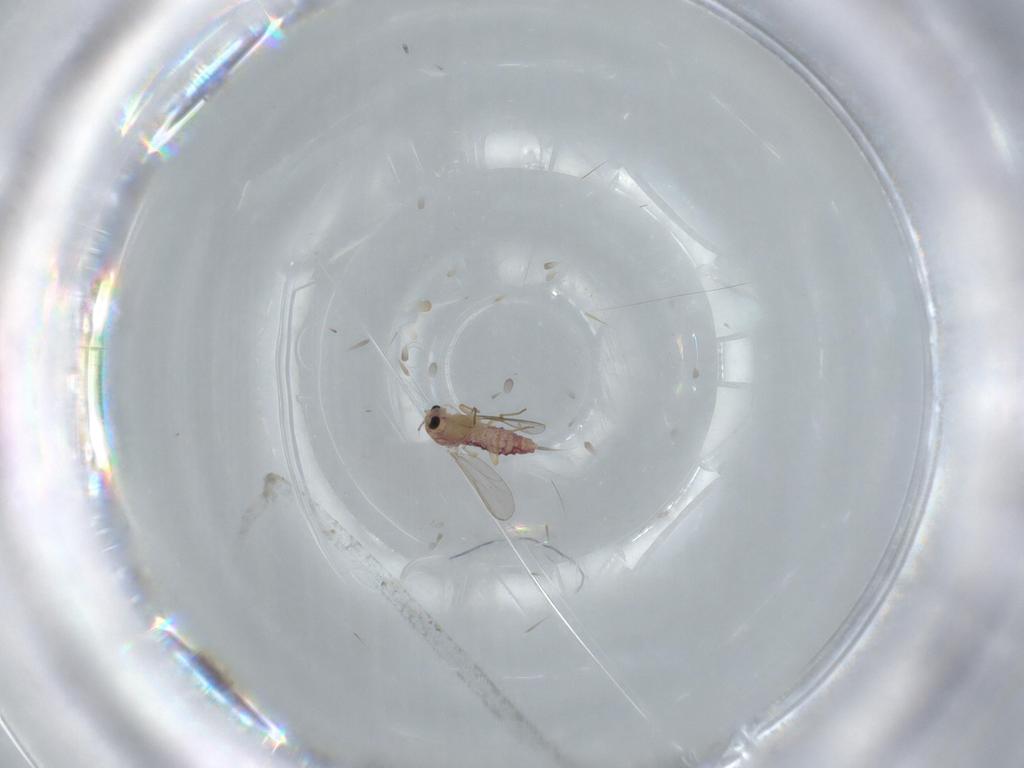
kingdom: Animalia
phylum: Arthropoda
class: Insecta
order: Diptera
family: Chironomidae
